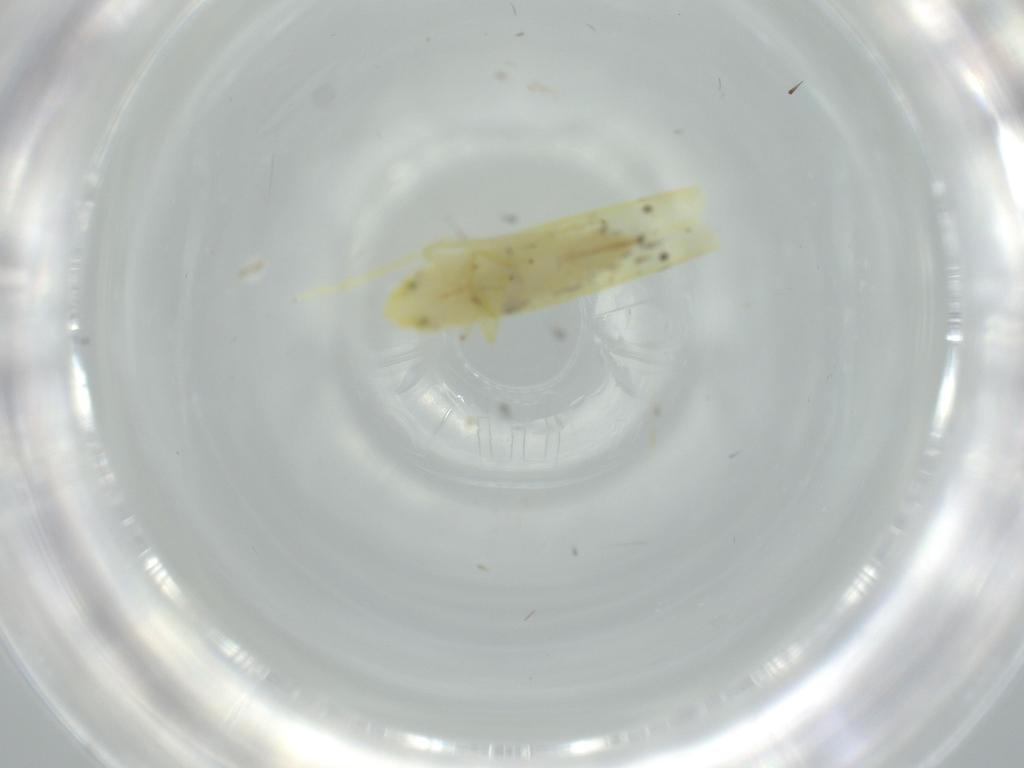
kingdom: Animalia
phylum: Arthropoda
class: Insecta
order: Hemiptera
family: Cicadellidae
